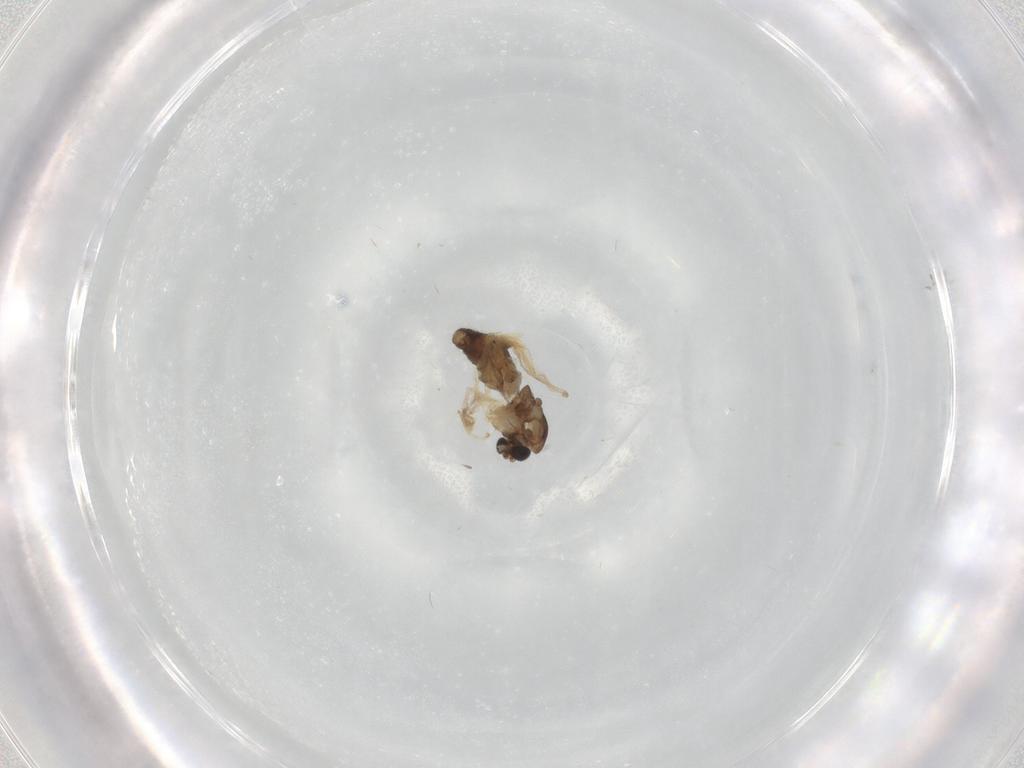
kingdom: Animalia
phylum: Arthropoda
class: Insecta
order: Diptera
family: Chironomidae
